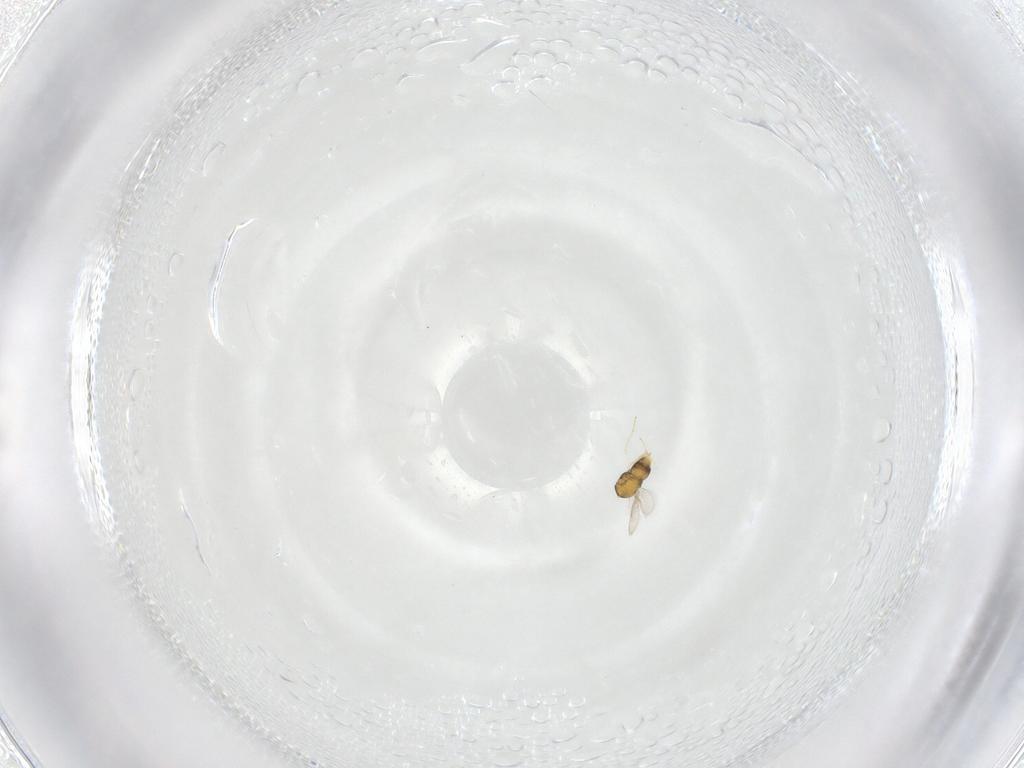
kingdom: Animalia
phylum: Arthropoda
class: Insecta
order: Hymenoptera
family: Aphelinidae
